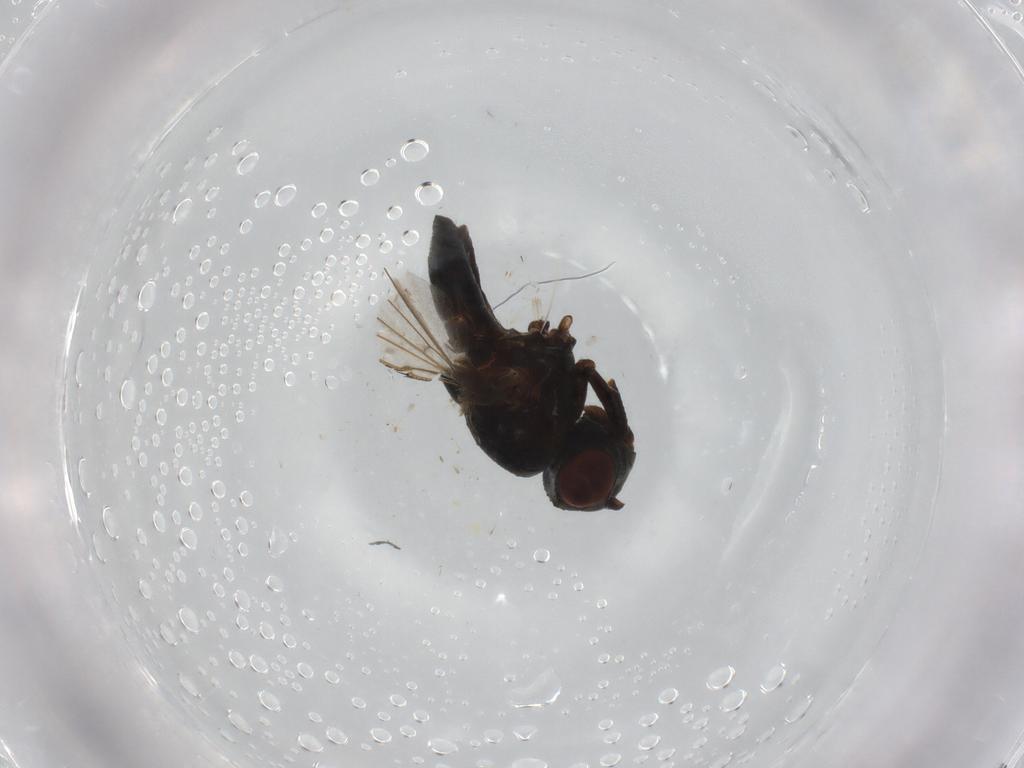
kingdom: Animalia
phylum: Arthropoda
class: Insecta
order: Diptera
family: Ephydridae
